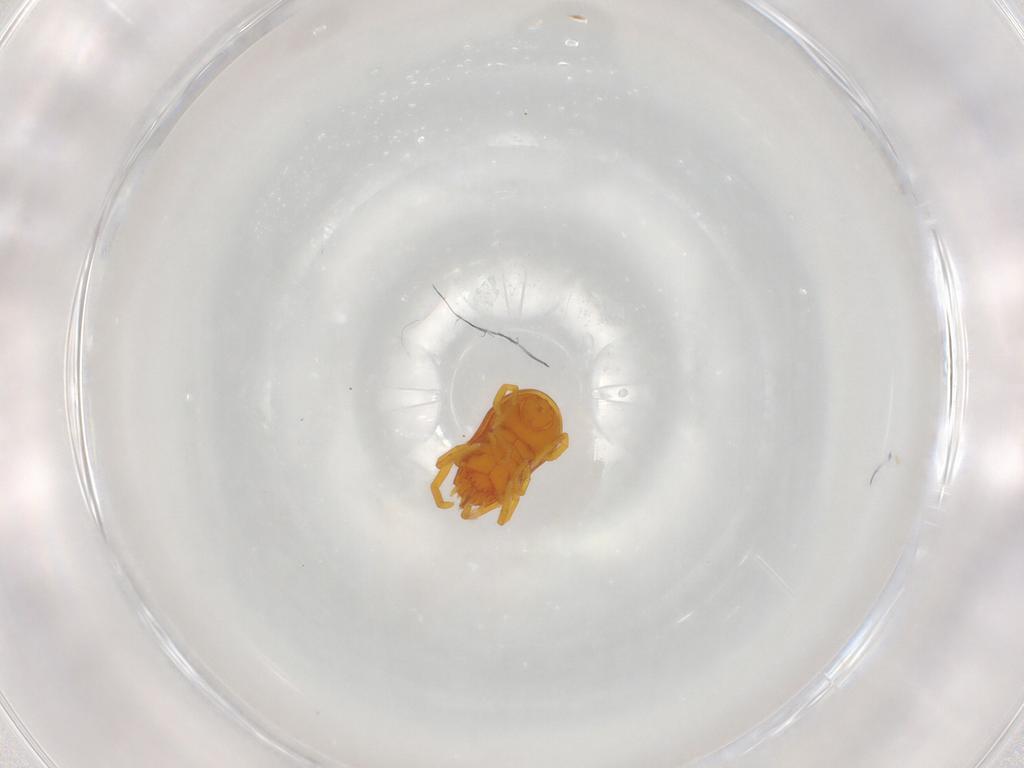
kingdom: Animalia
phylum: Arthropoda
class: Arachnida
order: Trombidiformes
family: Labidostommidae
